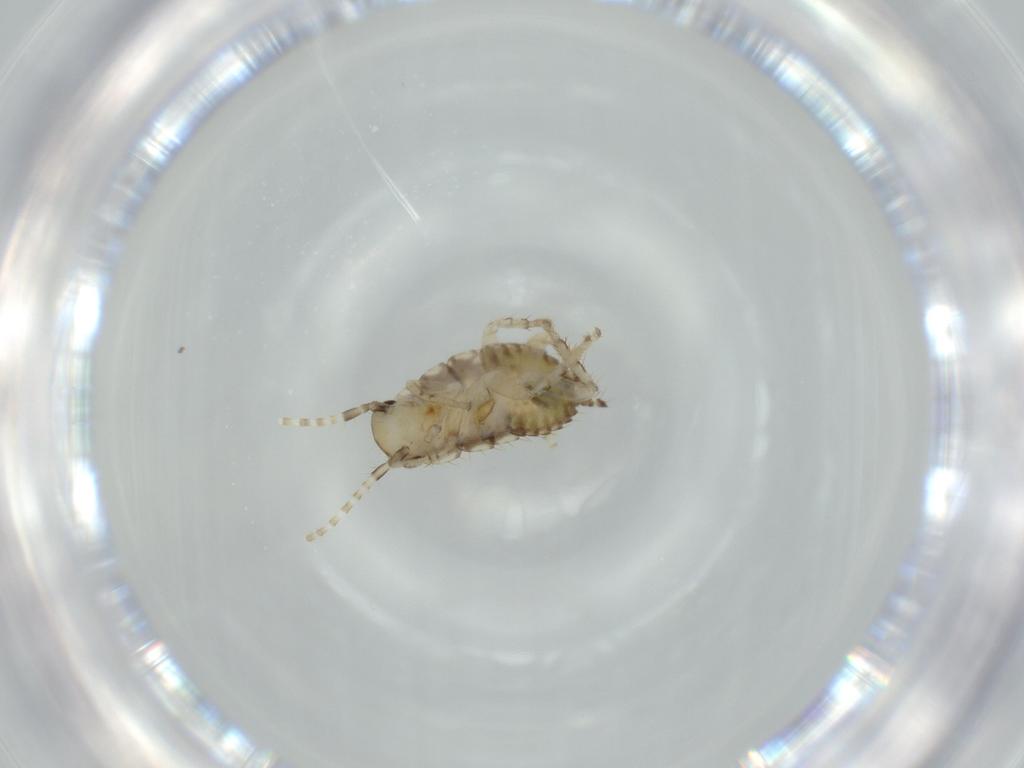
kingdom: Animalia
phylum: Arthropoda
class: Insecta
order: Blattodea
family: Ectobiidae
